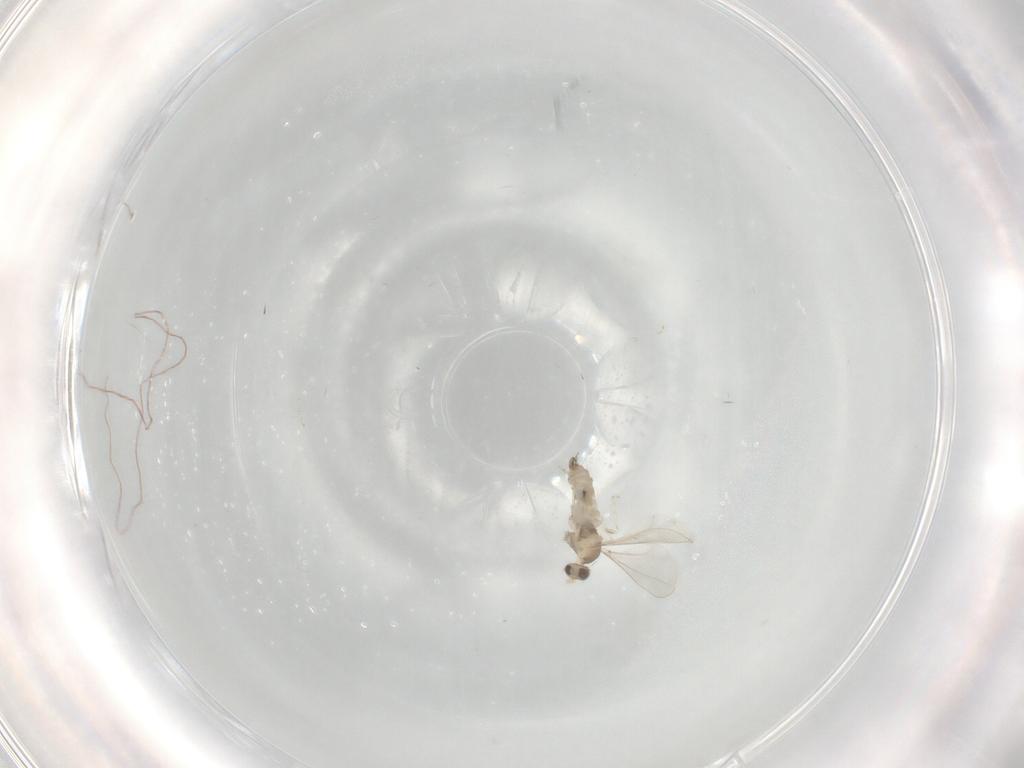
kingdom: Animalia
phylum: Arthropoda
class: Insecta
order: Diptera
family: Cecidomyiidae
